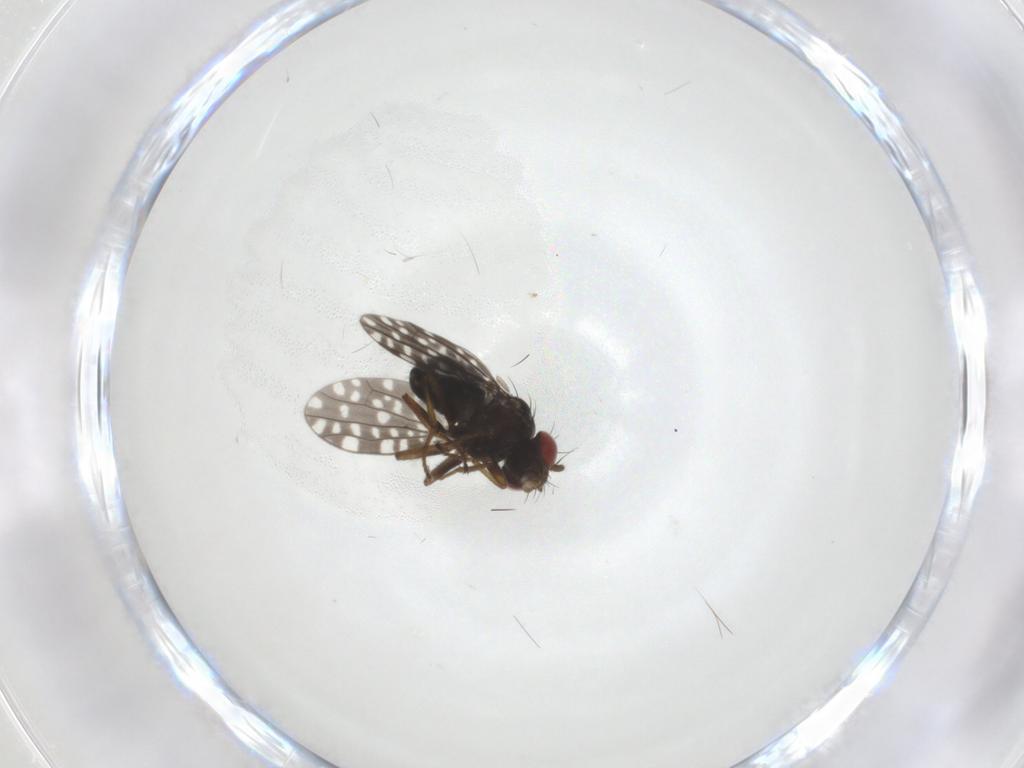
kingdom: Animalia
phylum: Arthropoda
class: Insecta
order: Diptera
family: Ephydridae
